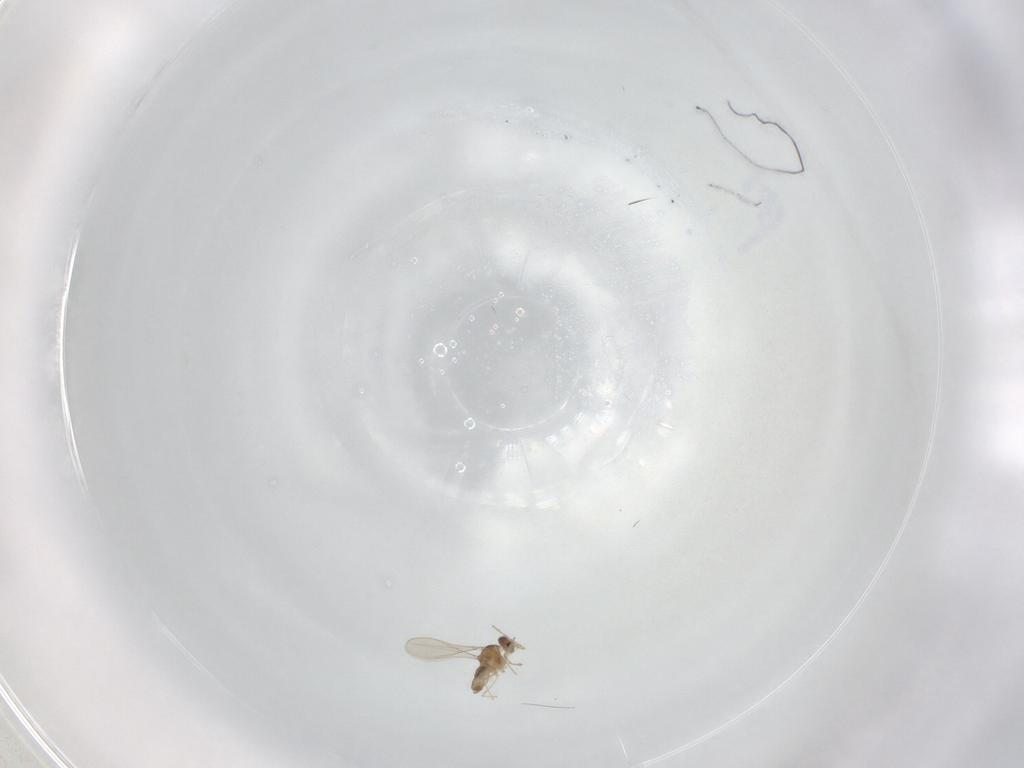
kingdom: Animalia
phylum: Arthropoda
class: Insecta
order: Diptera
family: Cecidomyiidae
